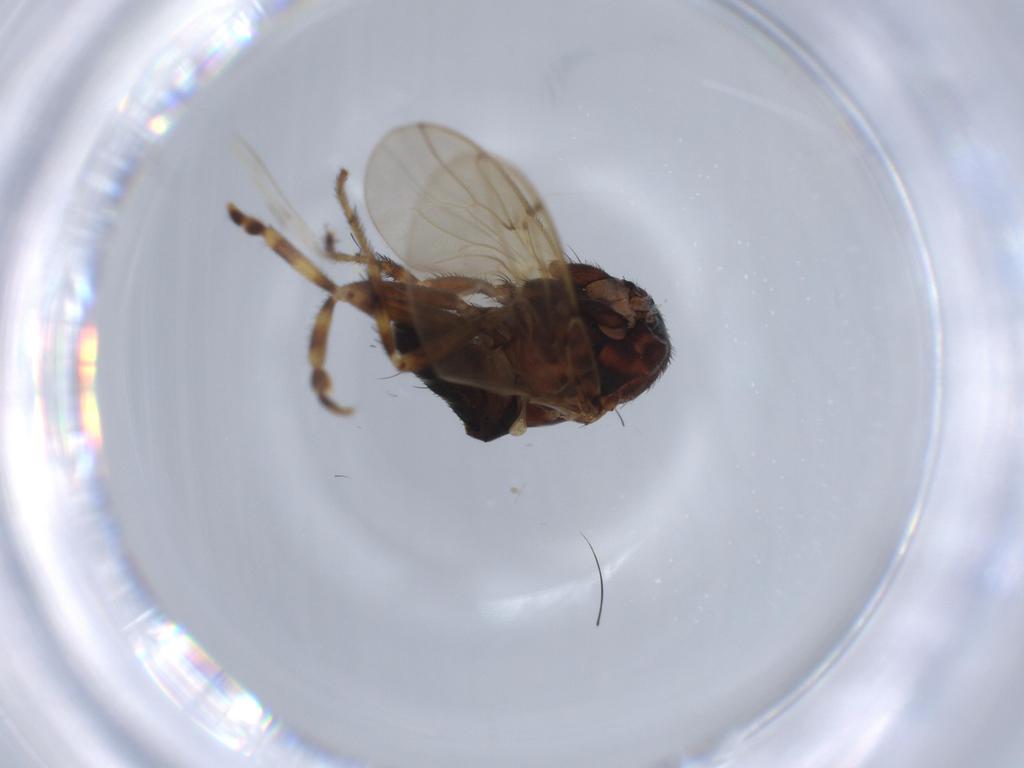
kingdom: Animalia
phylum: Arthropoda
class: Insecta
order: Diptera
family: Sphaeroceridae
